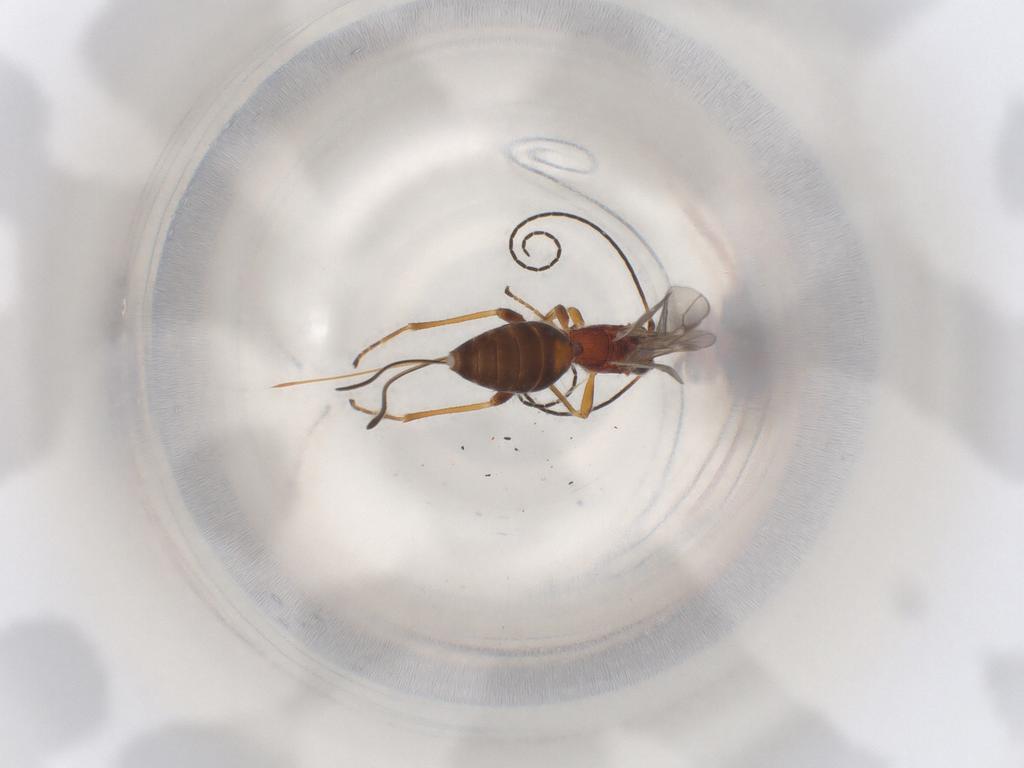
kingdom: Animalia
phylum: Arthropoda
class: Insecta
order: Hymenoptera
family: Braconidae
